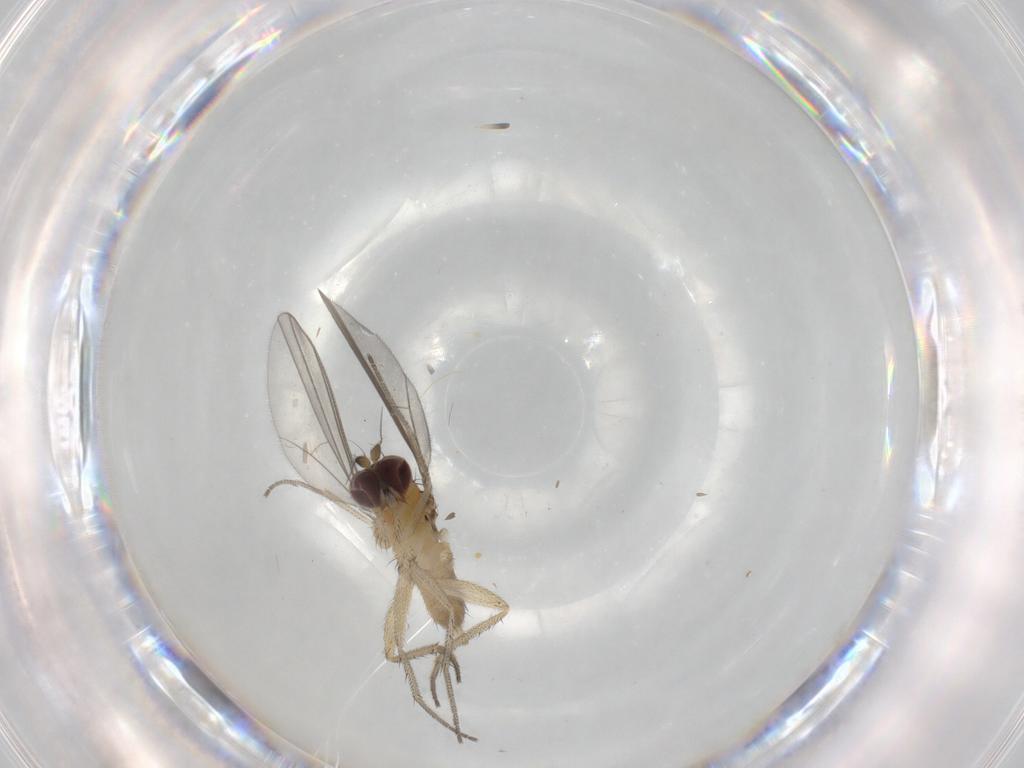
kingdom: Animalia
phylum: Arthropoda
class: Insecta
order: Diptera
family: Dolichopodidae
